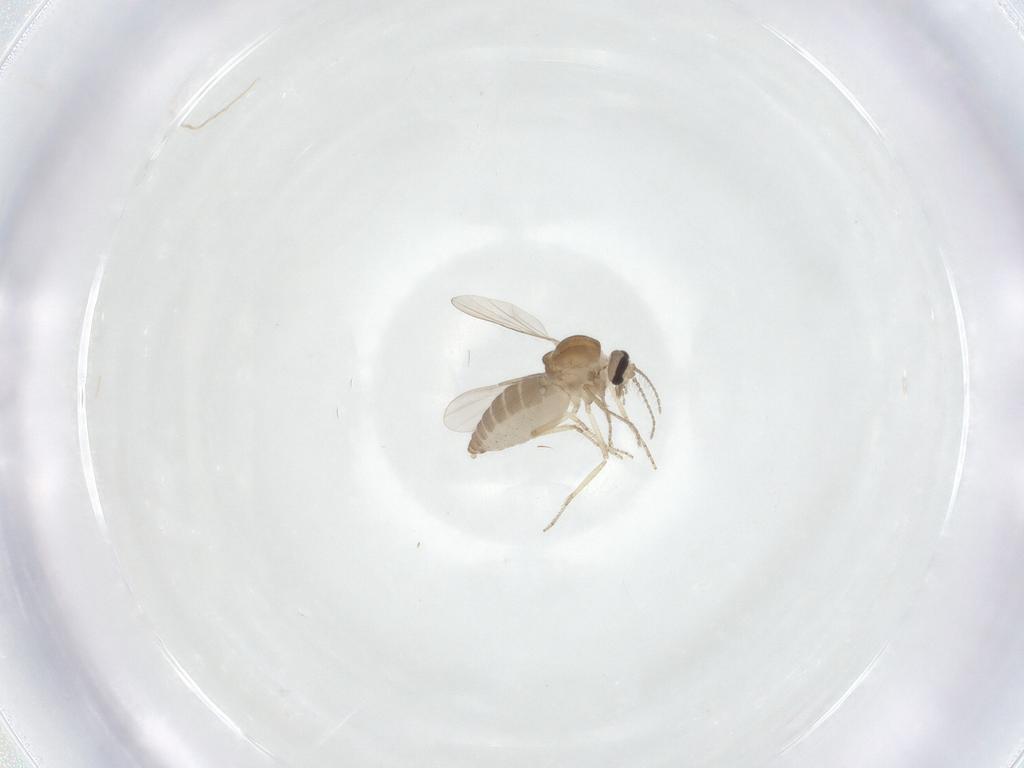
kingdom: Animalia
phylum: Arthropoda
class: Insecta
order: Diptera
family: Ceratopogonidae
